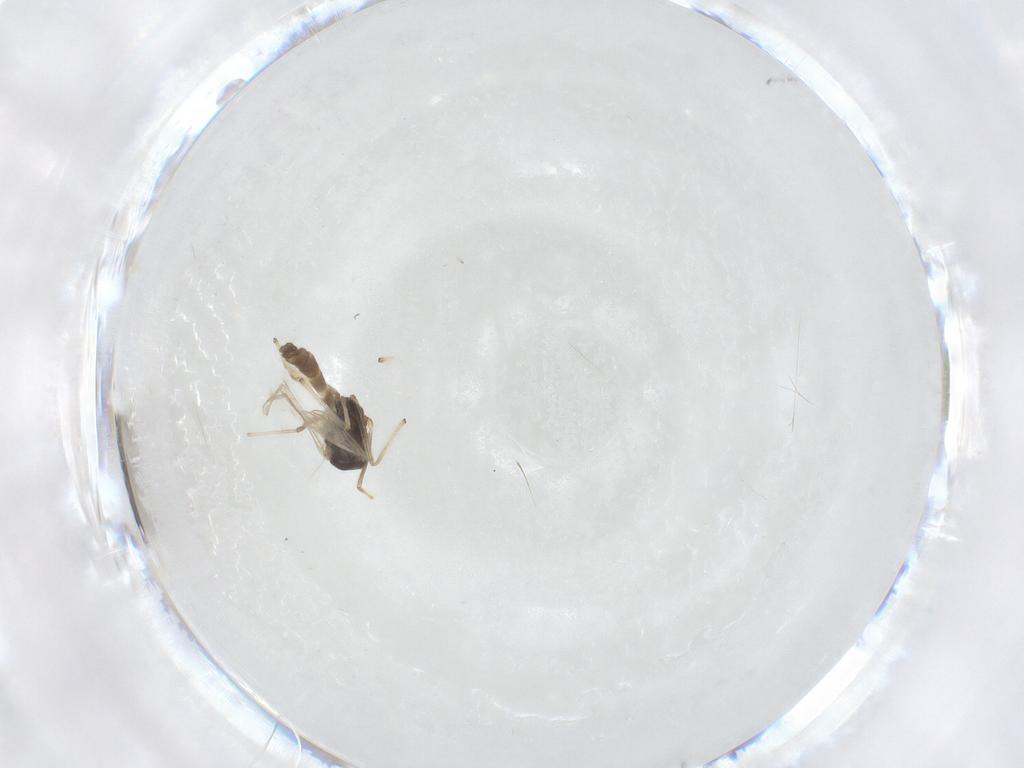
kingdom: Animalia
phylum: Arthropoda
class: Insecta
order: Diptera
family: Chironomidae
